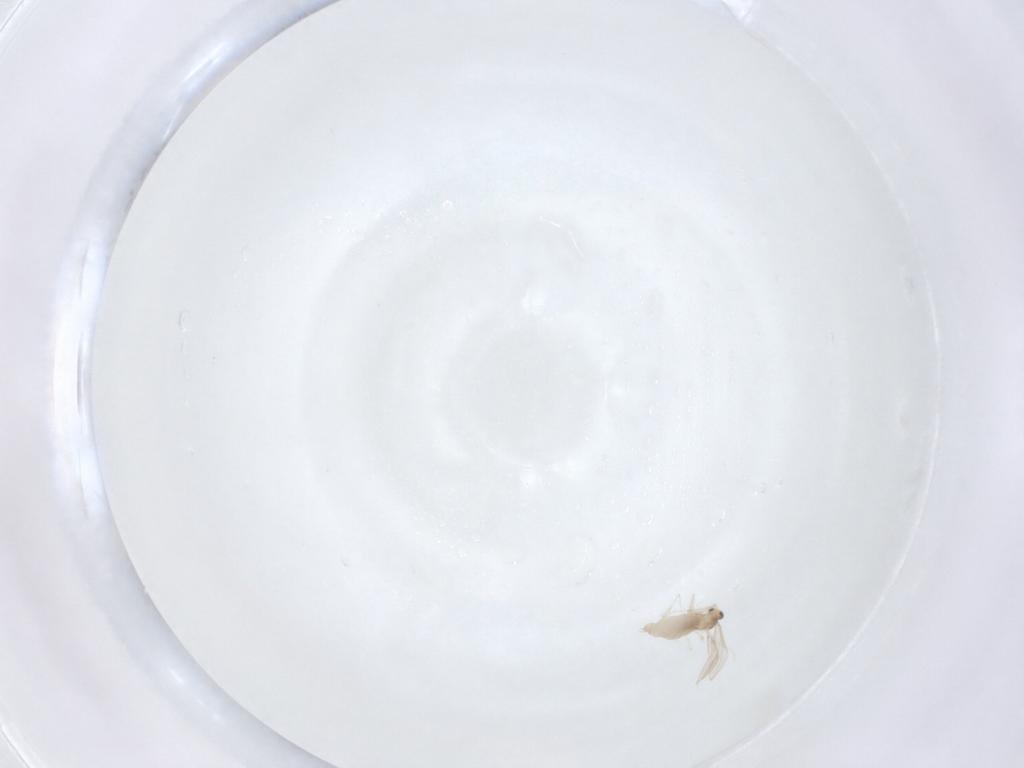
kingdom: Animalia
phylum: Arthropoda
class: Insecta
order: Diptera
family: Cecidomyiidae
